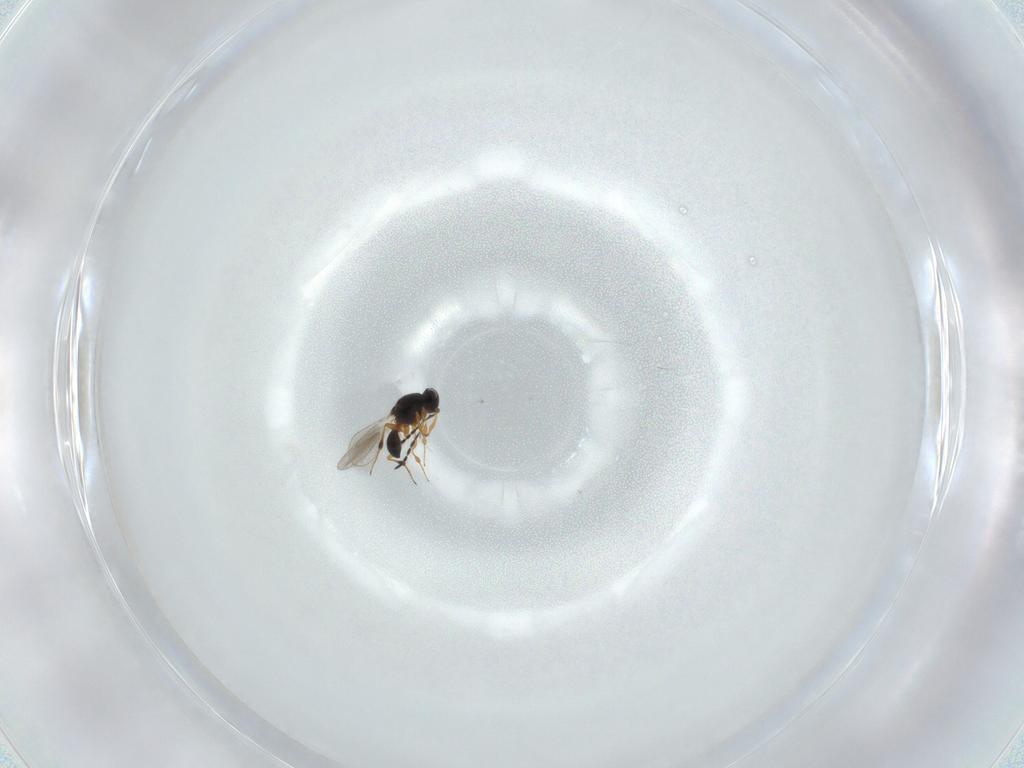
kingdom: Animalia
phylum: Arthropoda
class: Insecta
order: Hymenoptera
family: Platygastridae
